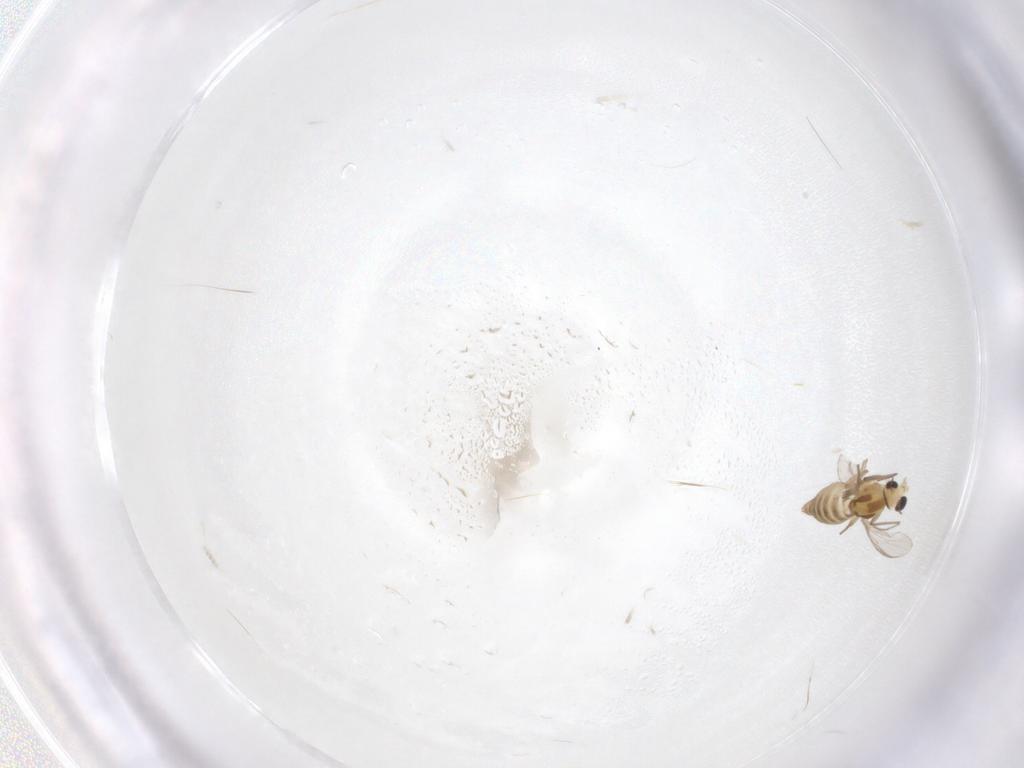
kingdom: Animalia
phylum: Arthropoda
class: Insecta
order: Diptera
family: Chironomidae
